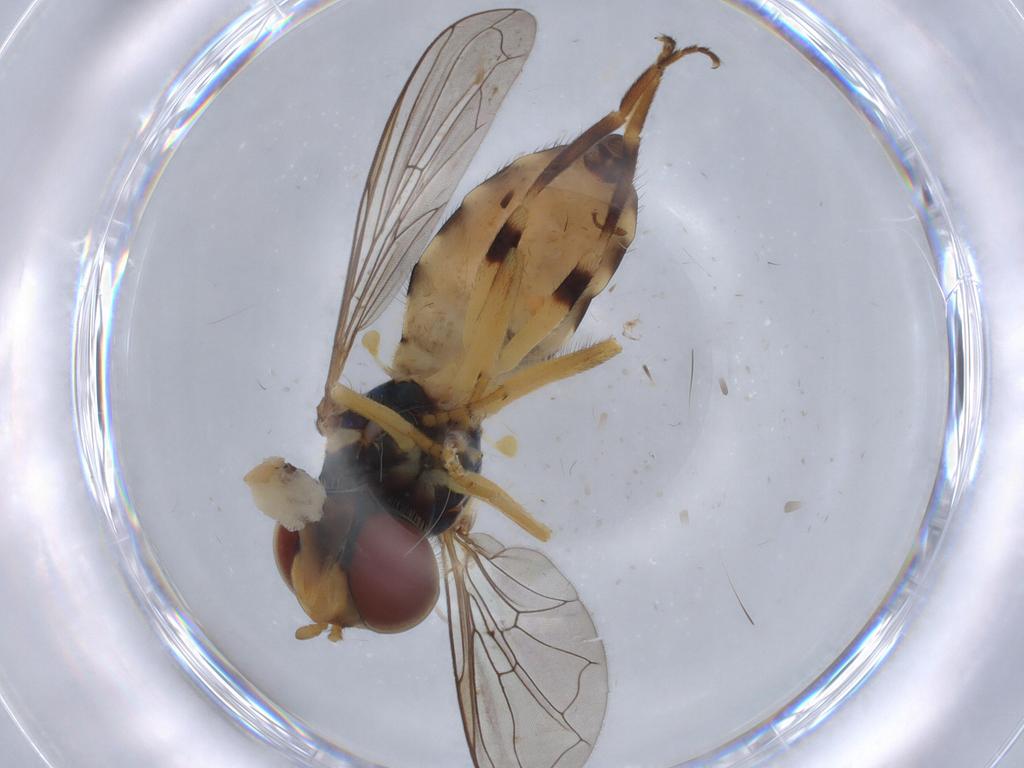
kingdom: Animalia
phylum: Arthropoda
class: Insecta
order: Diptera
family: Syrphidae
